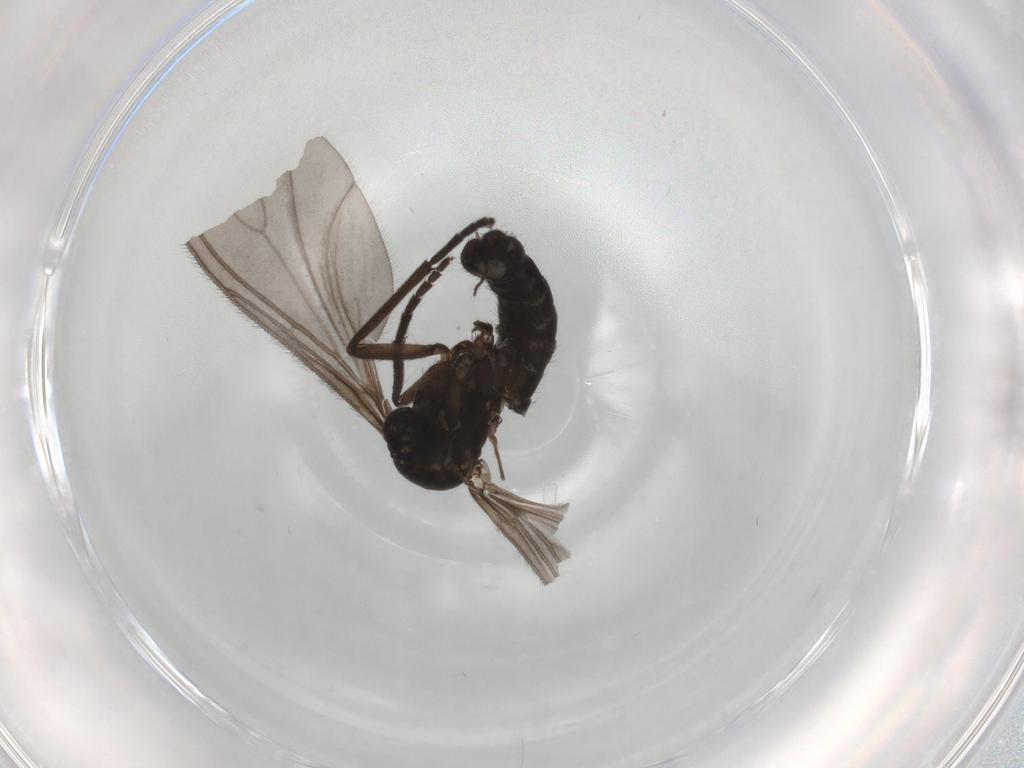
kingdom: Animalia
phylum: Arthropoda
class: Insecta
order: Diptera
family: Sciaridae
